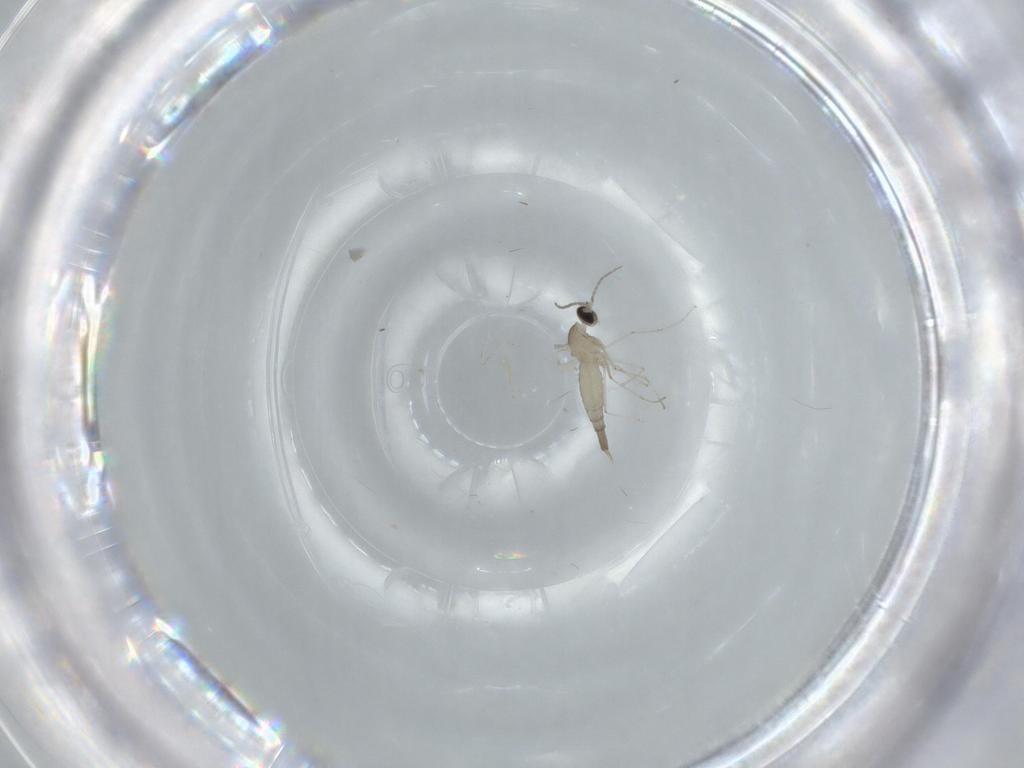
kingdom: Animalia
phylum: Arthropoda
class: Insecta
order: Diptera
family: Cecidomyiidae
